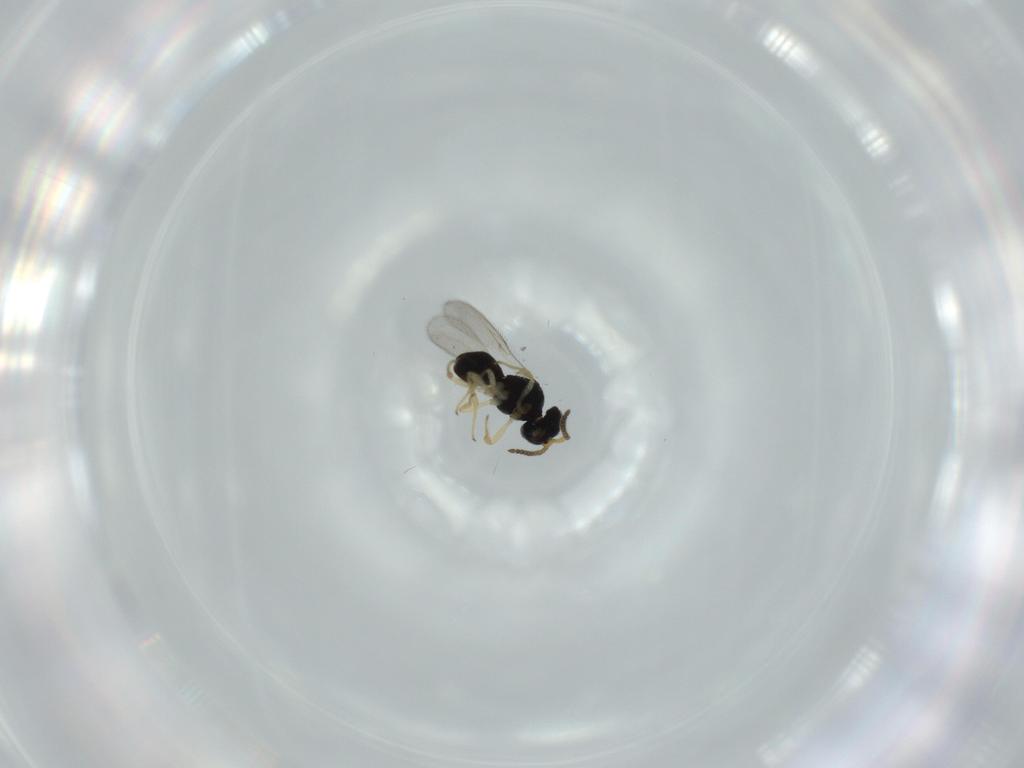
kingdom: Animalia
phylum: Arthropoda
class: Insecta
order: Hymenoptera
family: Scelionidae
